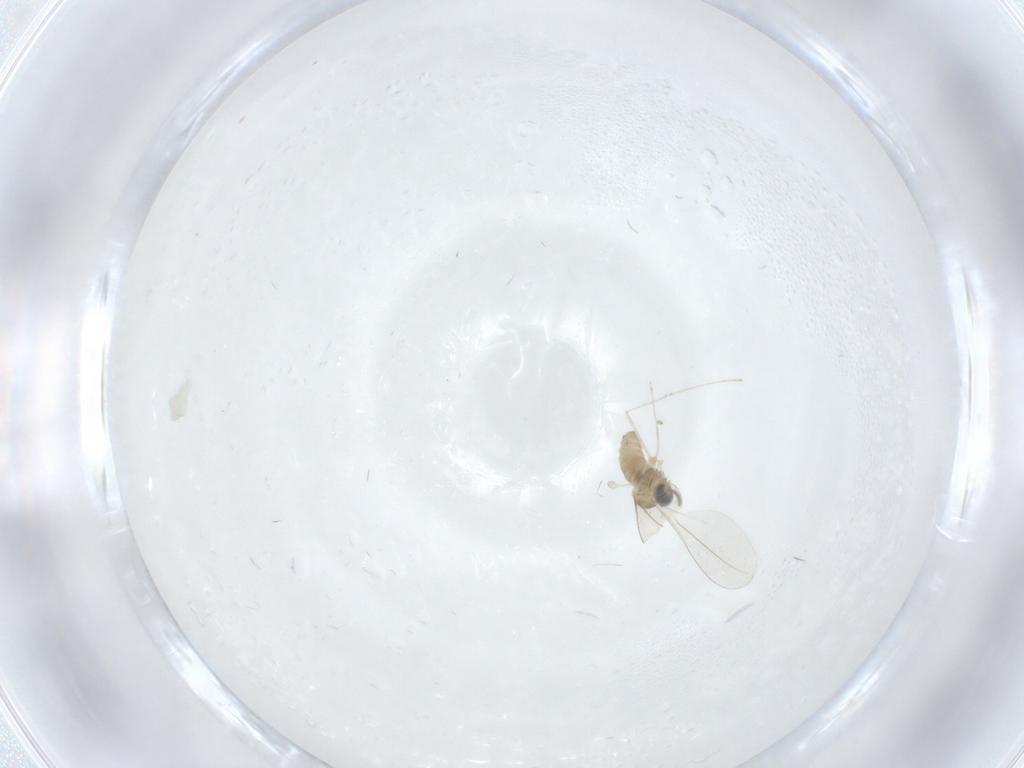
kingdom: Animalia
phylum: Arthropoda
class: Insecta
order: Diptera
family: Cecidomyiidae
